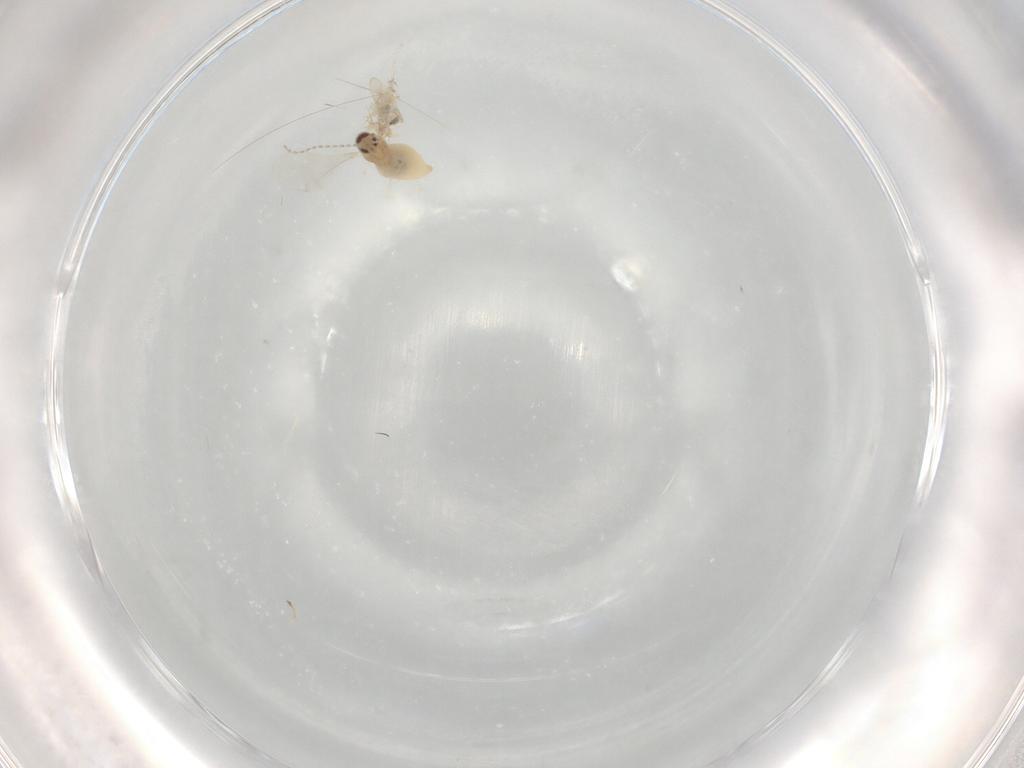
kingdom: Animalia
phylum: Arthropoda
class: Insecta
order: Diptera
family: Cecidomyiidae
